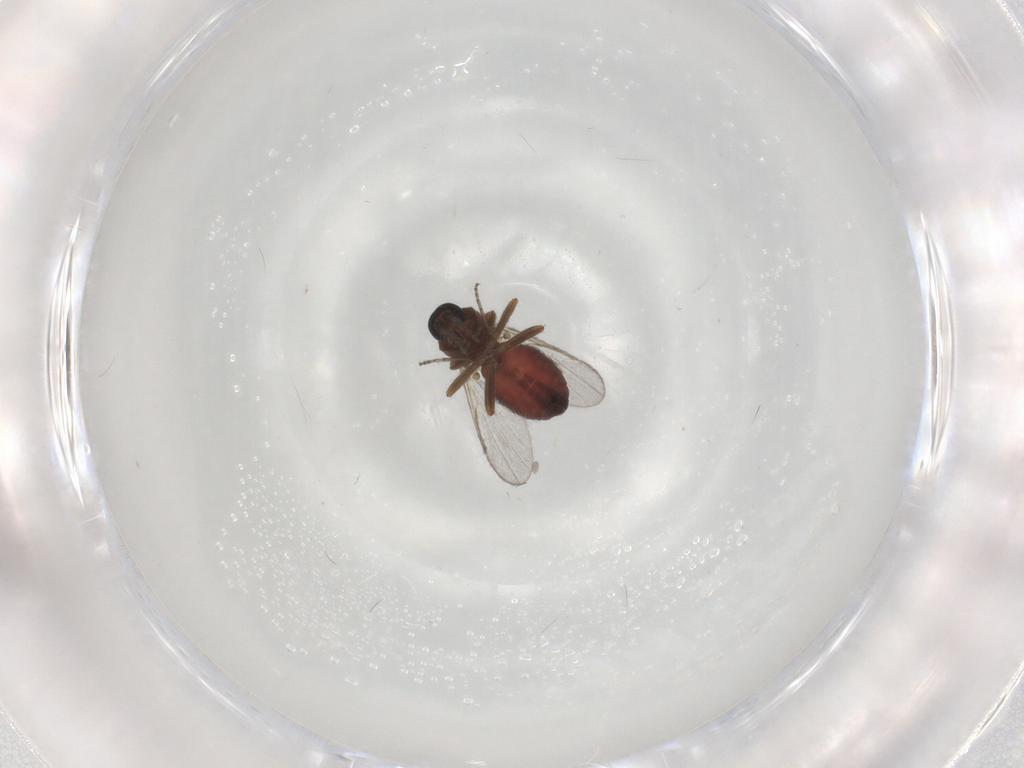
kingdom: Animalia
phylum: Arthropoda
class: Insecta
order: Diptera
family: Ceratopogonidae
